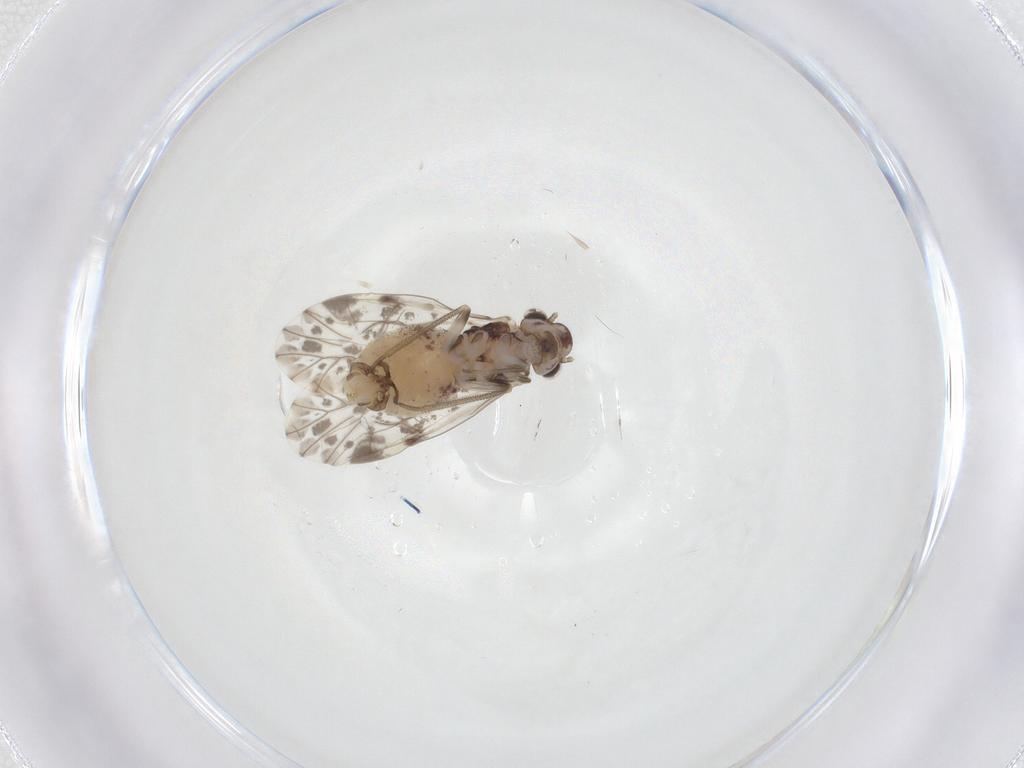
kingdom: Animalia
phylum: Arthropoda
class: Insecta
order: Psocodea
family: Psocidae
